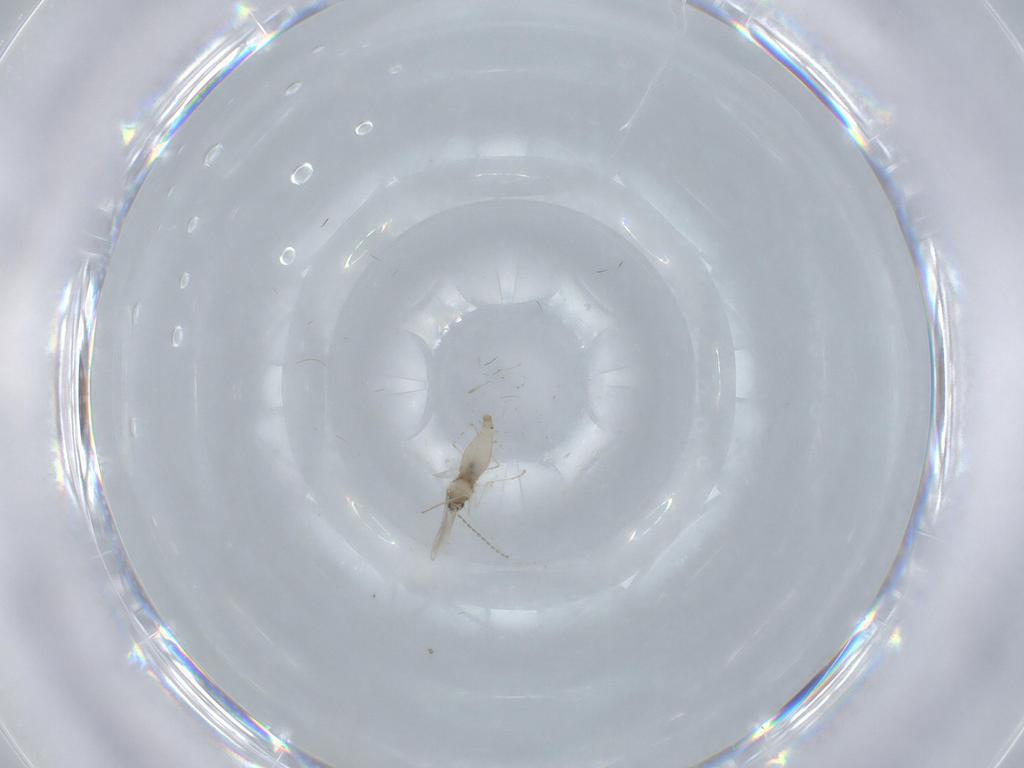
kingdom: Animalia
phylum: Arthropoda
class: Insecta
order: Diptera
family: Cecidomyiidae
